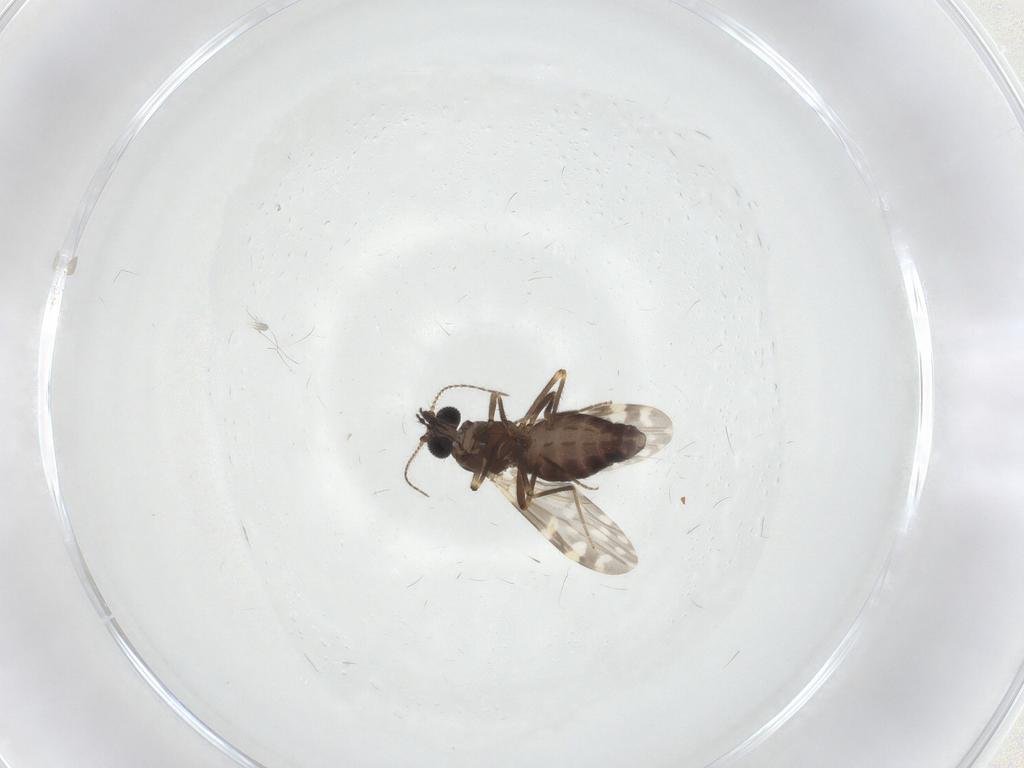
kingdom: Animalia
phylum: Arthropoda
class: Insecta
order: Diptera
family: Ceratopogonidae
